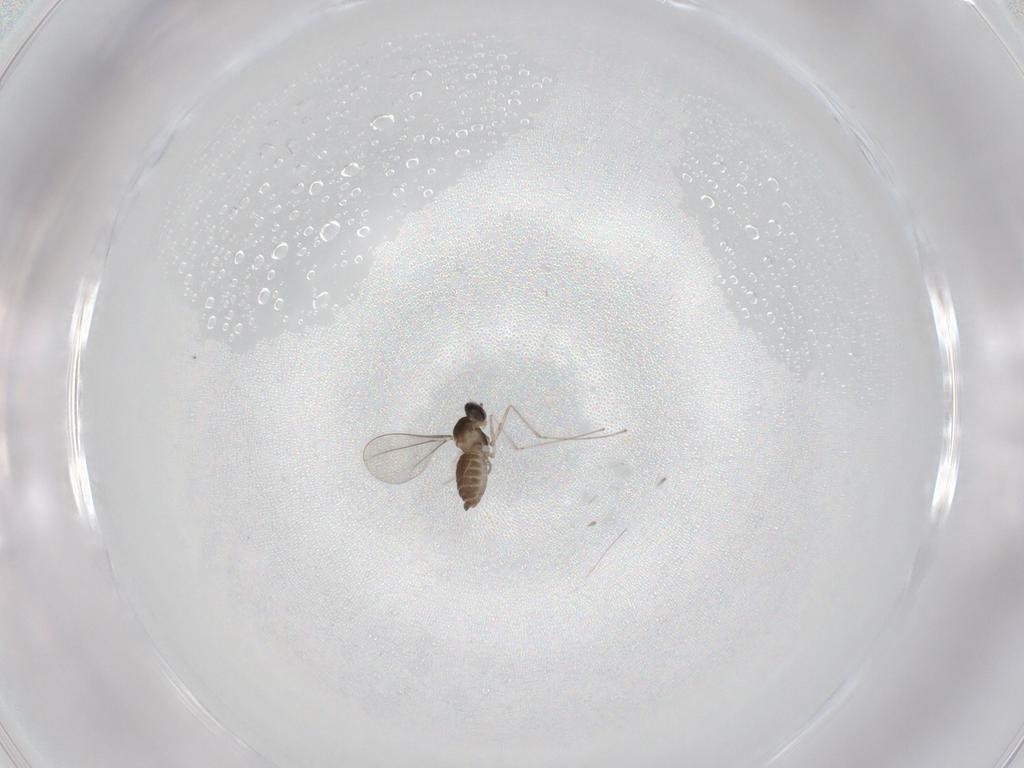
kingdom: Animalia
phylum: Arthropoda
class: Insecta
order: Diptera
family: Cecidomyiidae
